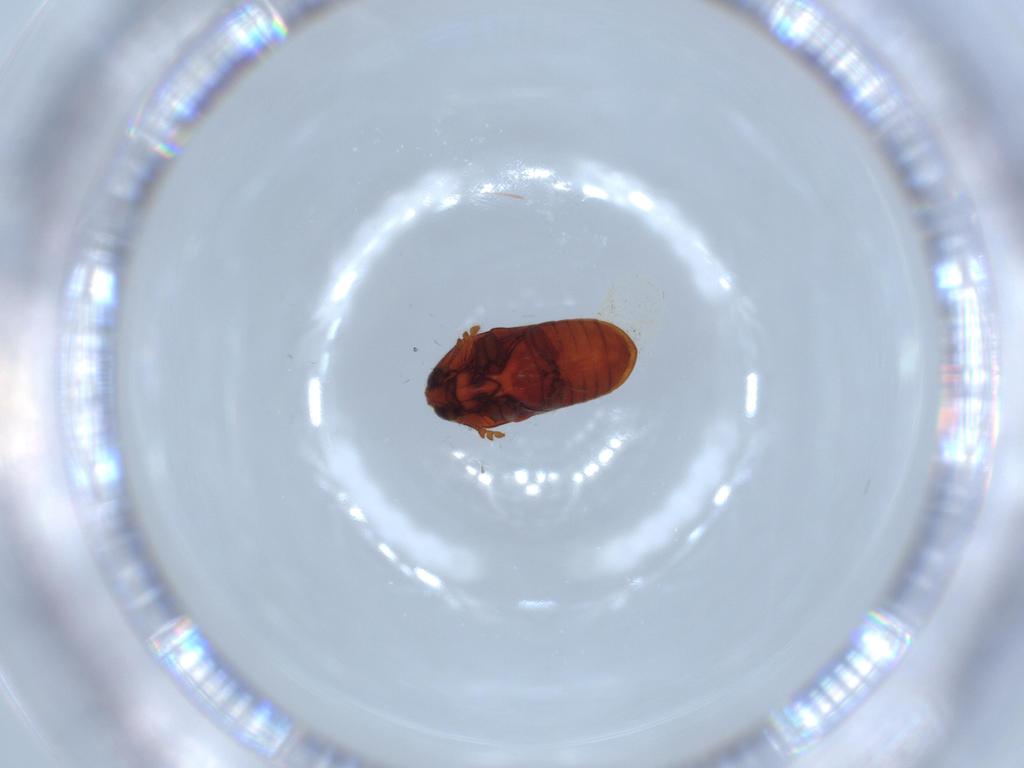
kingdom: Animalia
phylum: Arthropoda
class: Insecta
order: Coleoptera
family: Throscidae
